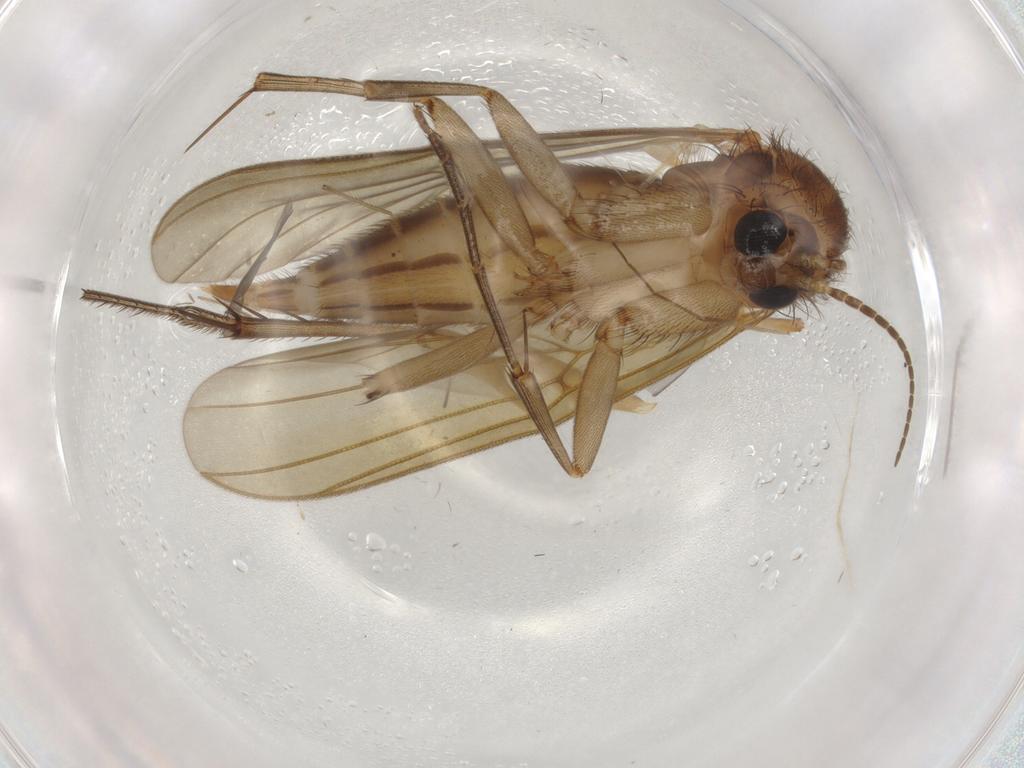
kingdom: Animalia
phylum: Arthropoda
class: Insecta
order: Diptera
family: Mycetophilidae
